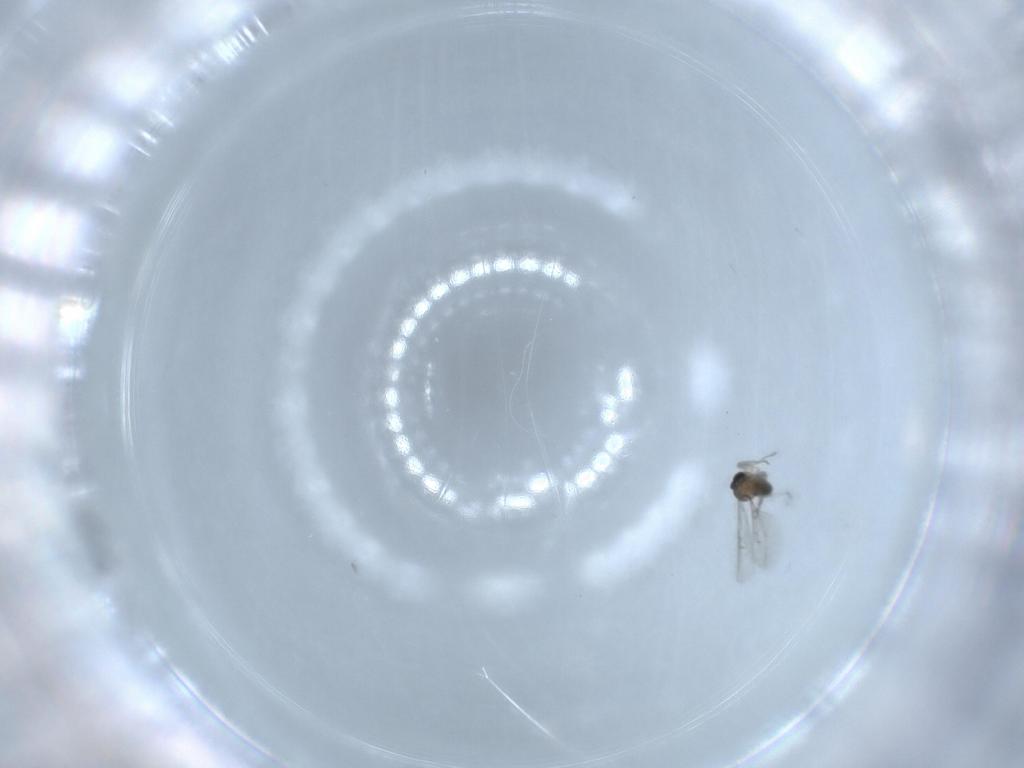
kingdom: Animalia
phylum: Arthropoda
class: Insecta
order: Diptera
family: Cecidomyiidae
